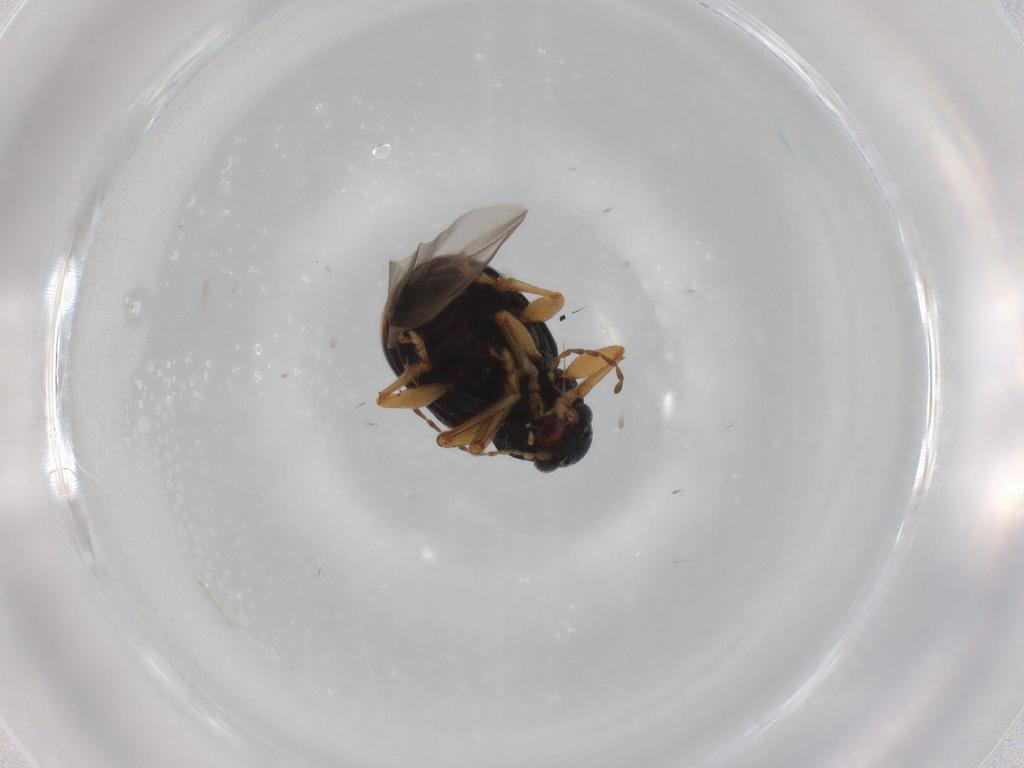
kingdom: Animalia
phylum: Arthropoda
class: Insecta
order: Coleoptera
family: Chrysomelidae
